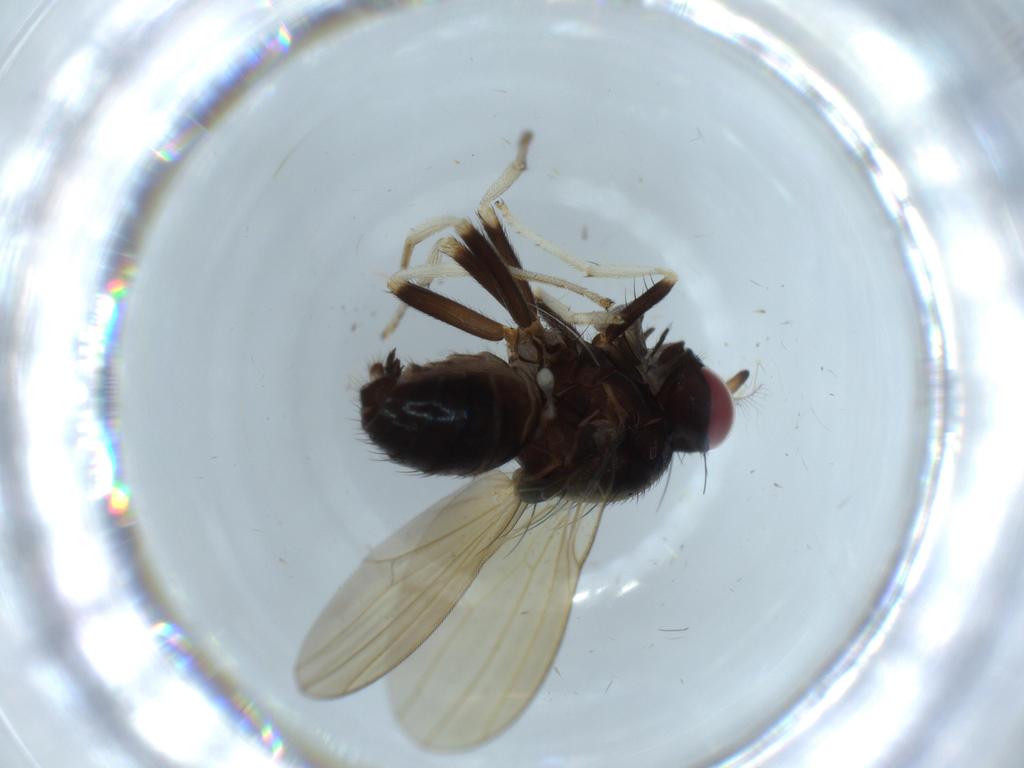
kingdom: Animalia
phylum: Arthropoda
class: Insecta
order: Diptera
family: Lauxaniidae
